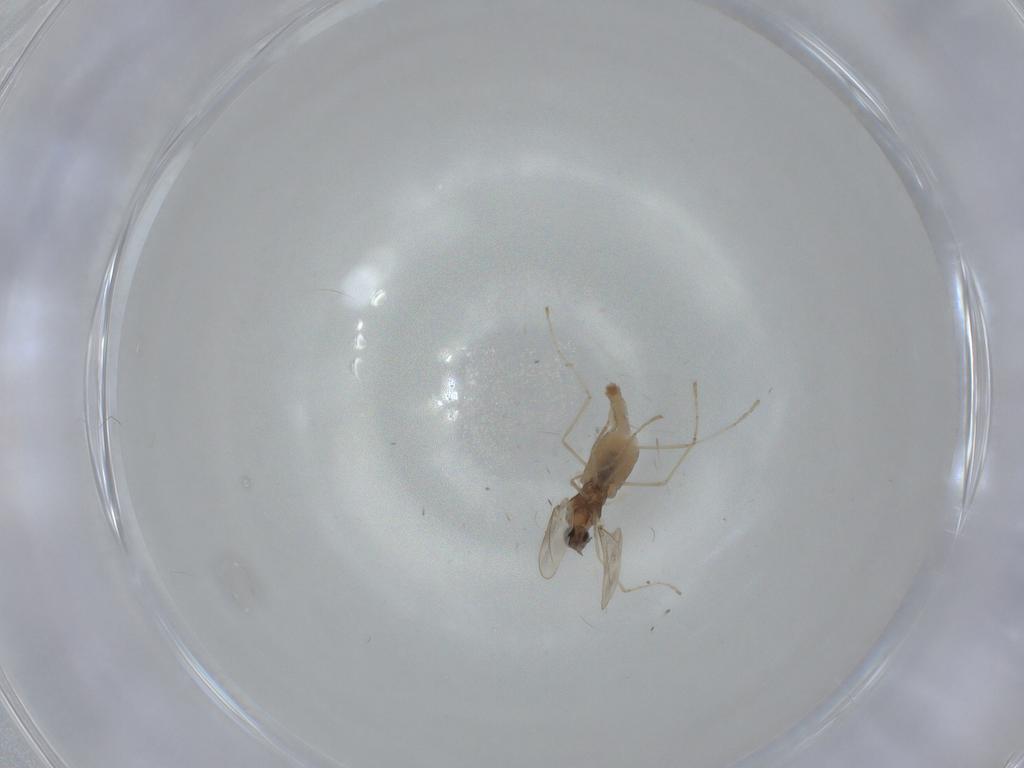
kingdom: Animalia
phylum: Arthropoda
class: Insecta
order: Diptera
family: Cecidomyiidae
